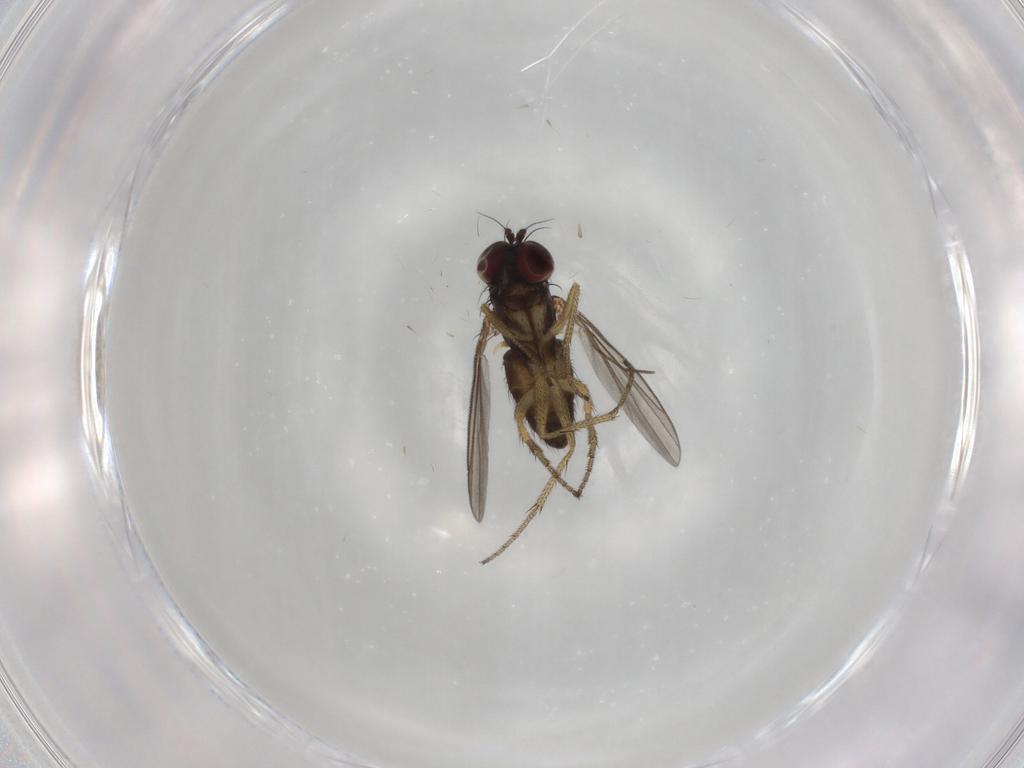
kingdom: Animalia
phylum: Arthropoda
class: Insecta
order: Diptera
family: Dolichopodidae
